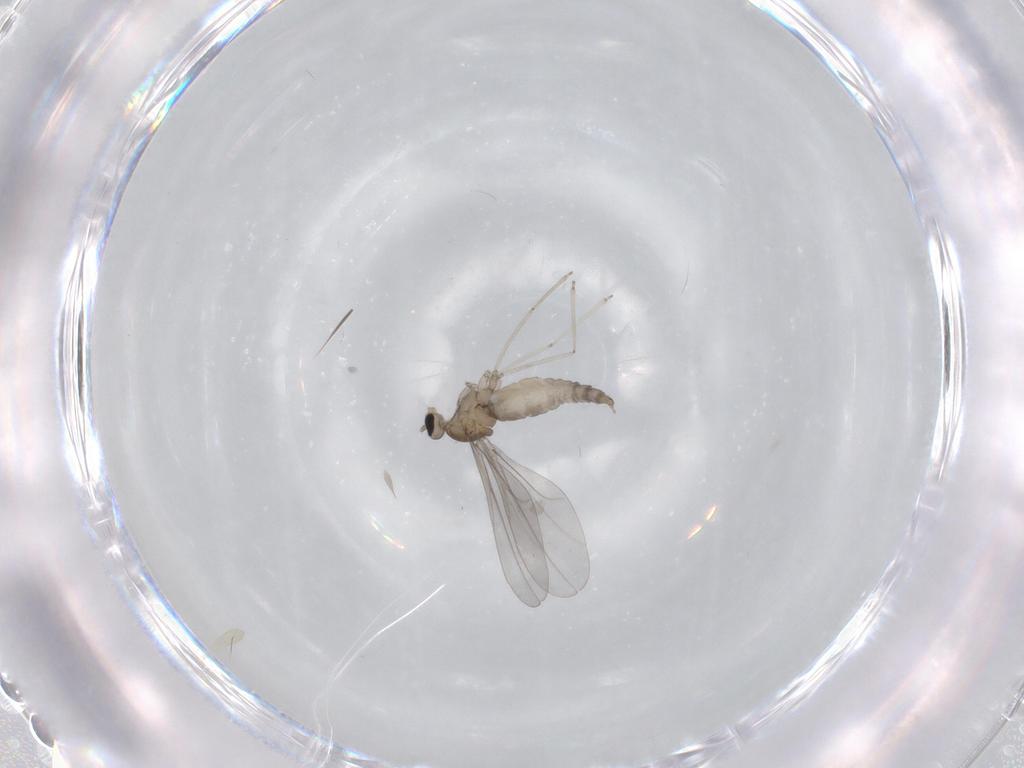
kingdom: Animalia
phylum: Arthropoda
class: Insecta
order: Diptera
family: Cecidomyiidae
